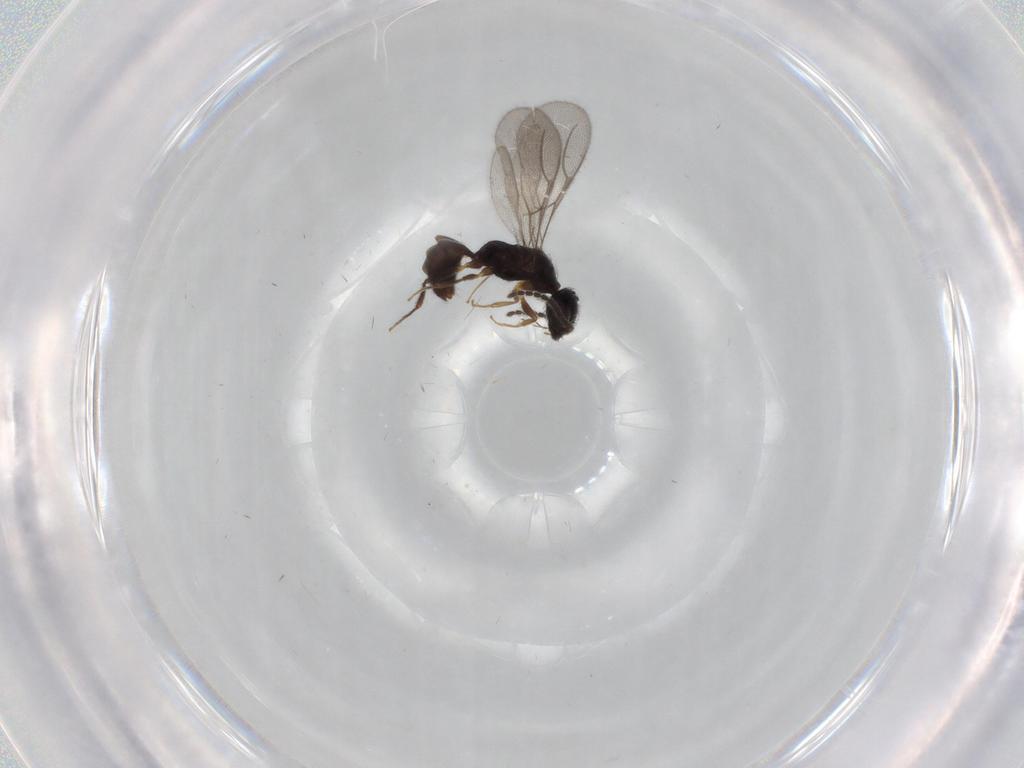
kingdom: Animalia
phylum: Arthropoda
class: Insecta
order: Hymenoptera
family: Bethylidae
